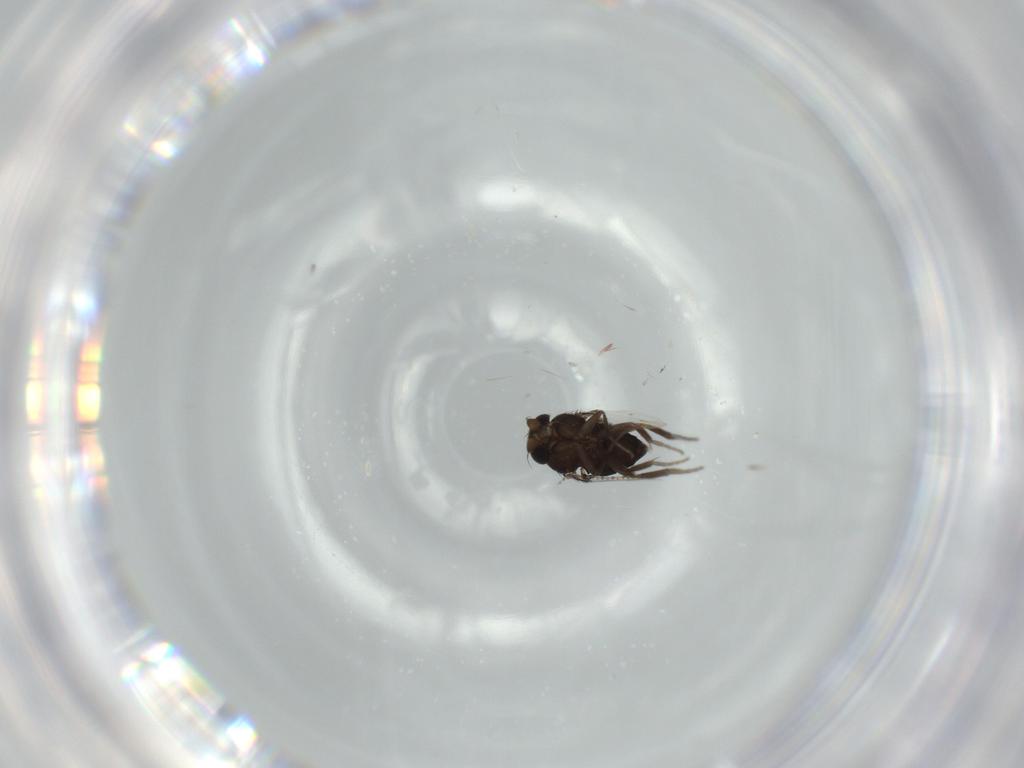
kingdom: Animalia
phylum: Arthropoda
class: Insecta
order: Diptera
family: Phoridae
